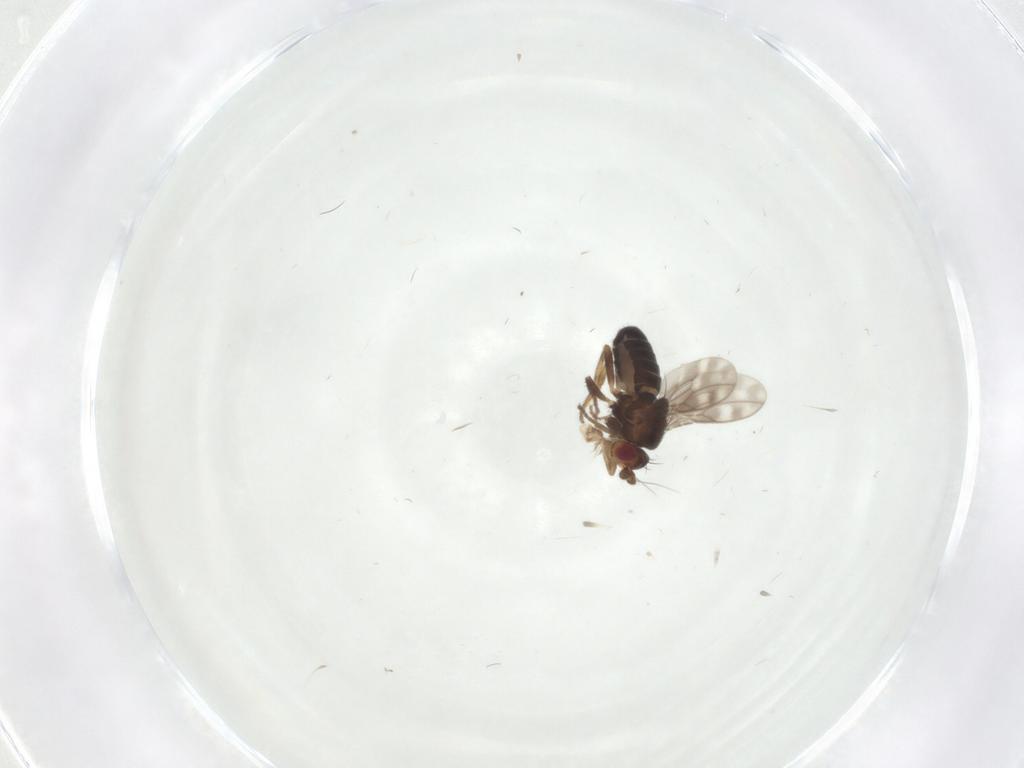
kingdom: Animalia
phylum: Arthropoda
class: Insecta
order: Diptera
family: Sphaeroceridae
